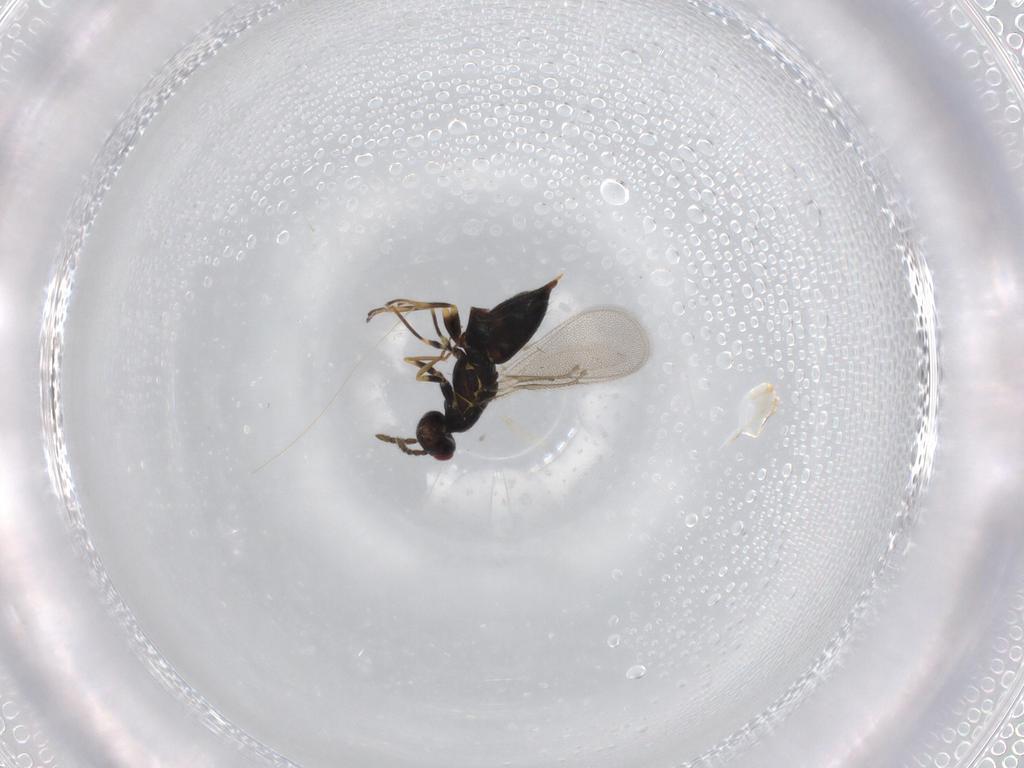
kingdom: Animalia
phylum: Arthropoda
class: Insecta
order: Hymenoptera
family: Eulophidae
